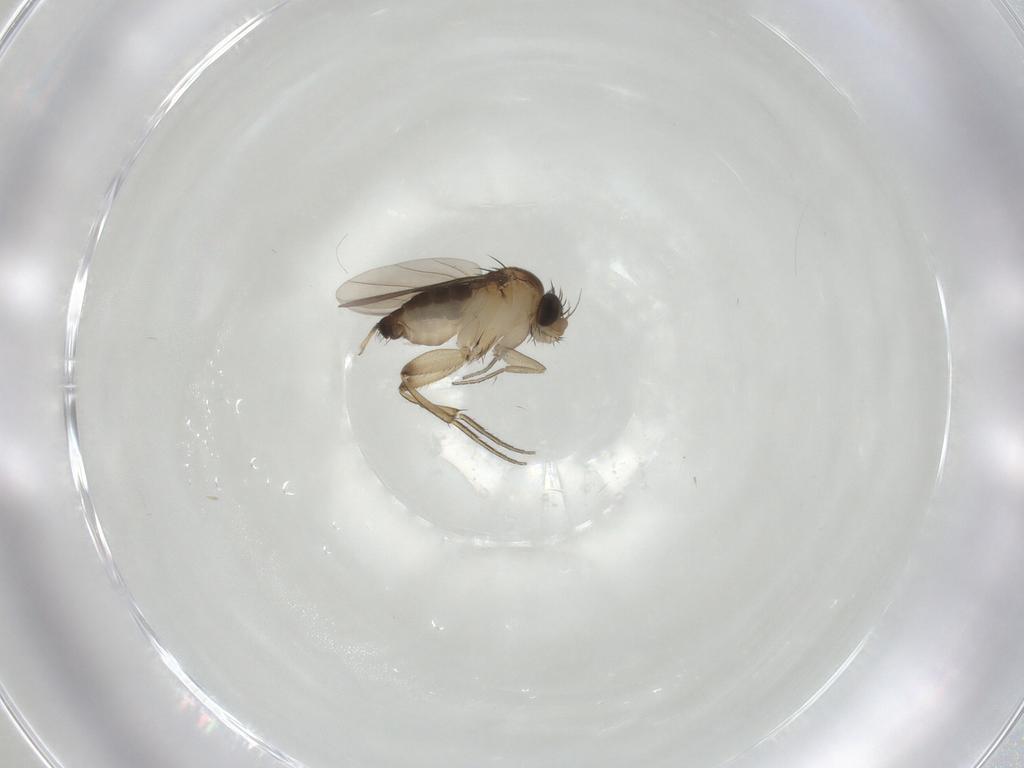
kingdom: Animalia
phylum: Arthropoda
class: Insecta
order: Diptera
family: Phoridae
